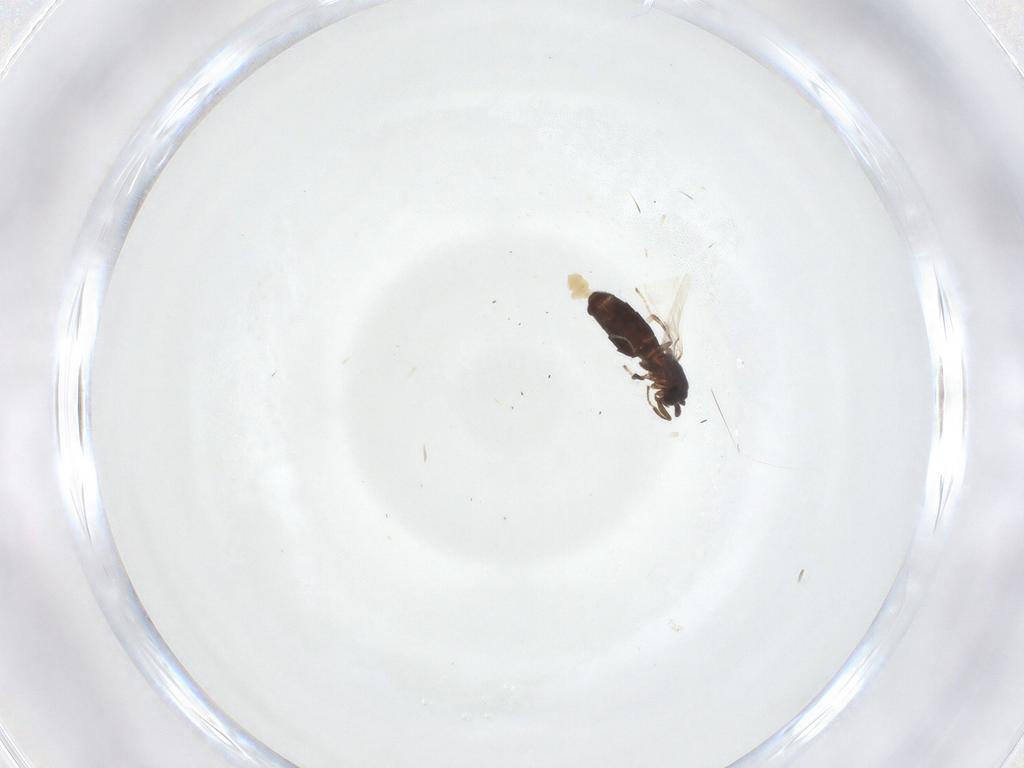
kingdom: Animalia
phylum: Arthropoda
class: Insecta
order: Diptera
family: Scatopsidae
